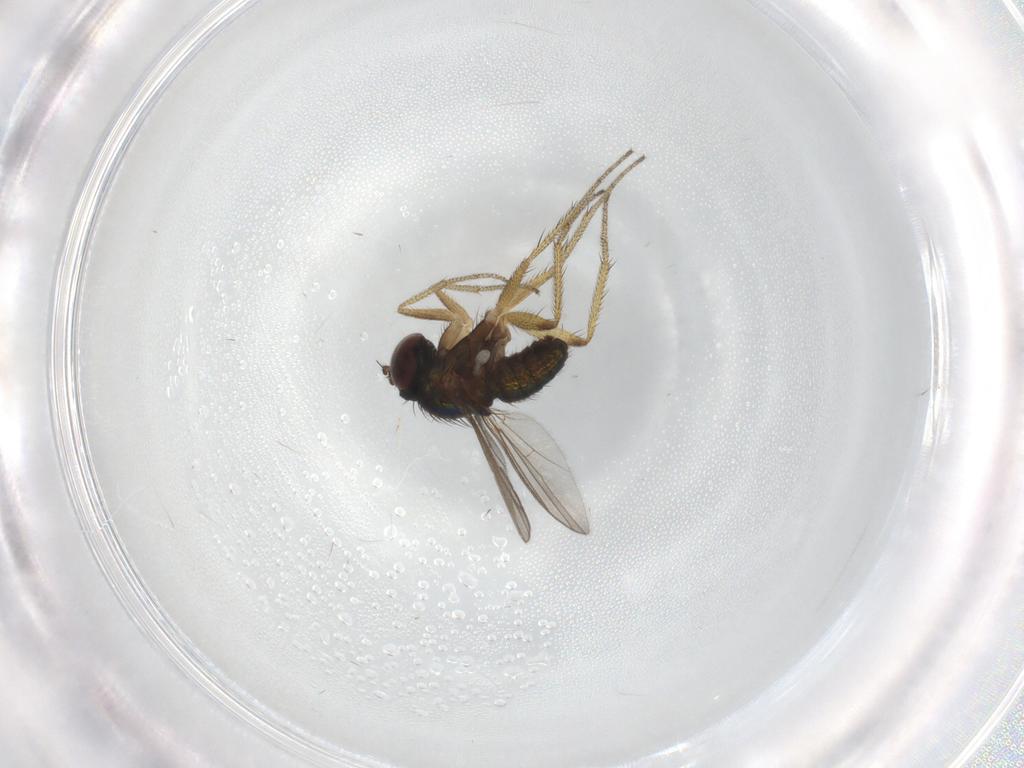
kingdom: Animalia
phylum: Arthropoda
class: Insecta
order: Diptera
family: Dolichopodidae
